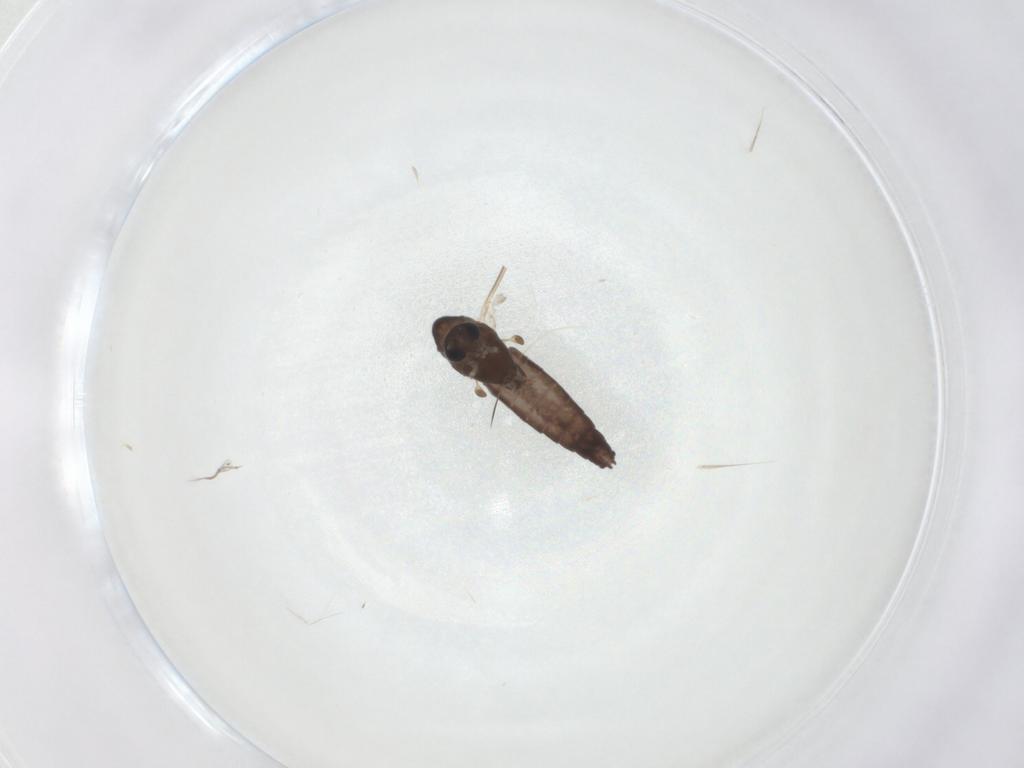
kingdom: Animalia
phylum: Arthropoda
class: Insecta
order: Diptera
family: Chironomidae
